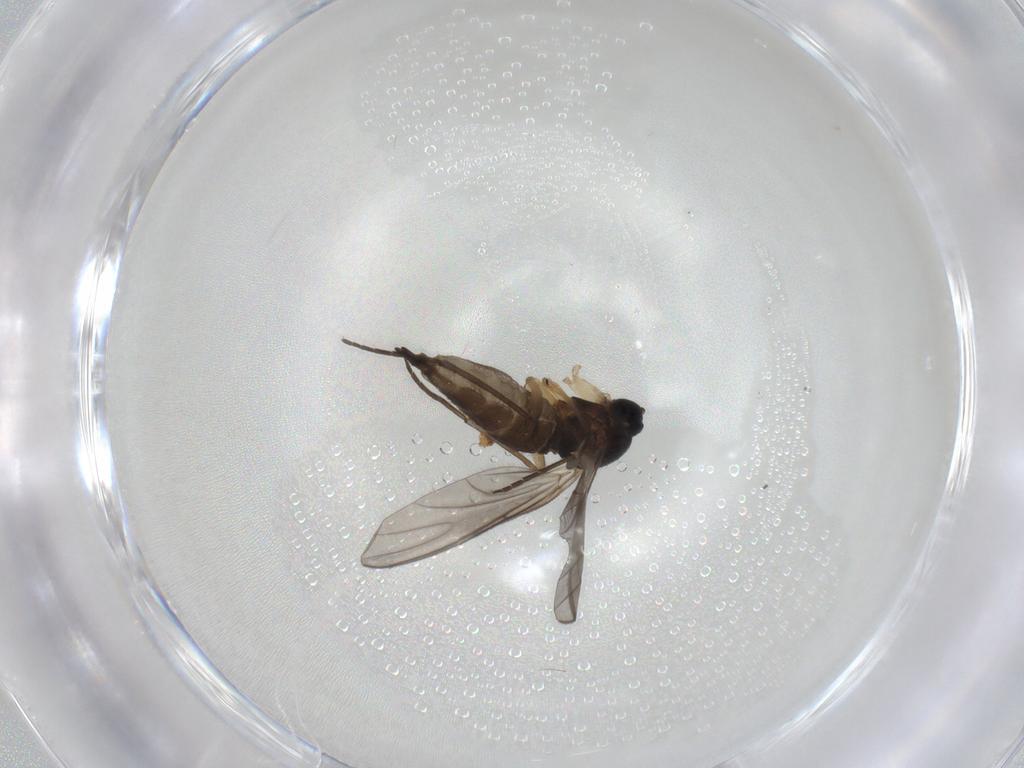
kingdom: Animalia
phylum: Arthropoda
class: Insecta
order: Diptera
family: Sciaridae
